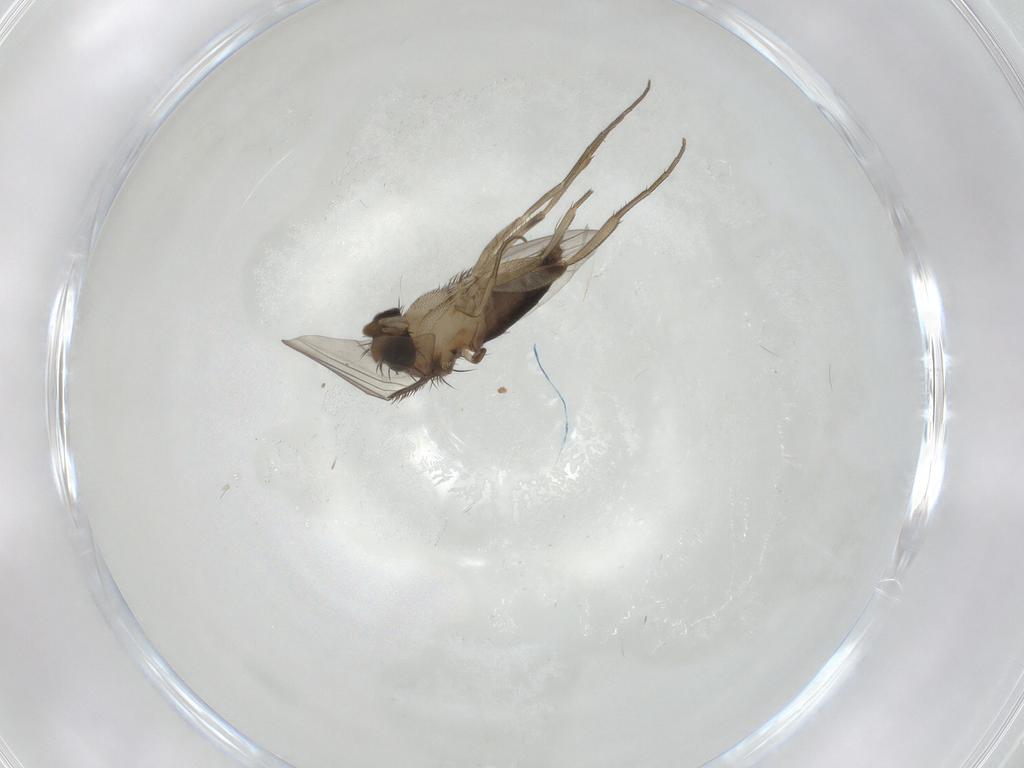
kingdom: Animalia
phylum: Arthropoda
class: Insecta
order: Diptera
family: Phoridae
